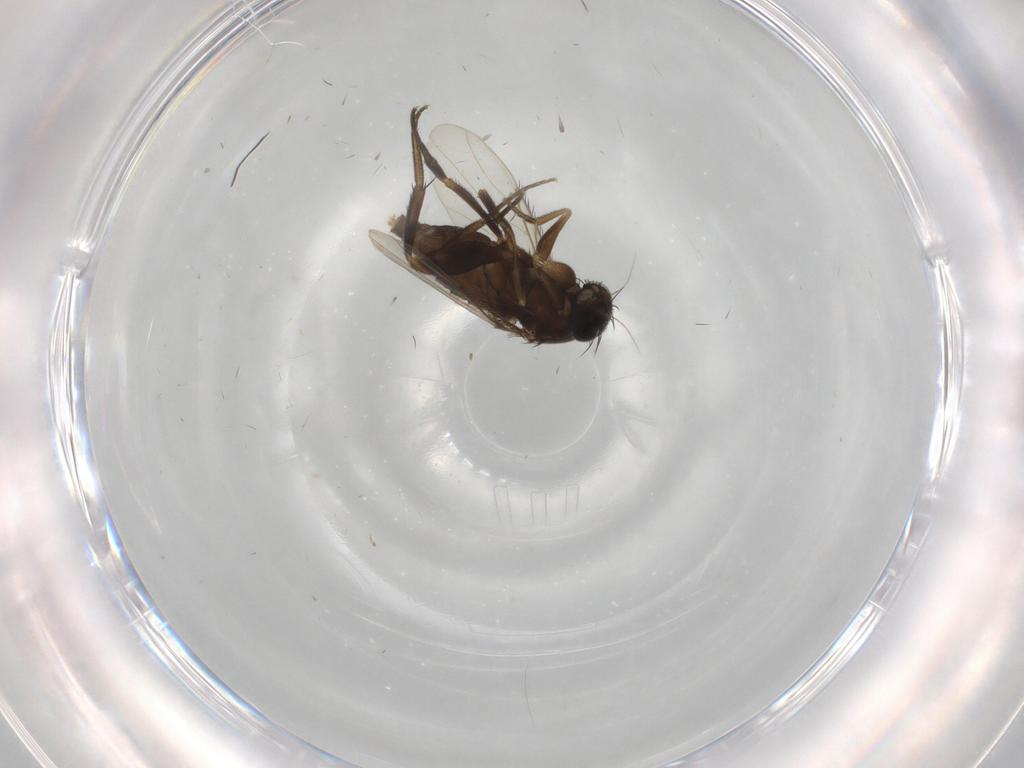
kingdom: Animalia
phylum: Arthropoda
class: Insecta
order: Diptera
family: Phoridae
